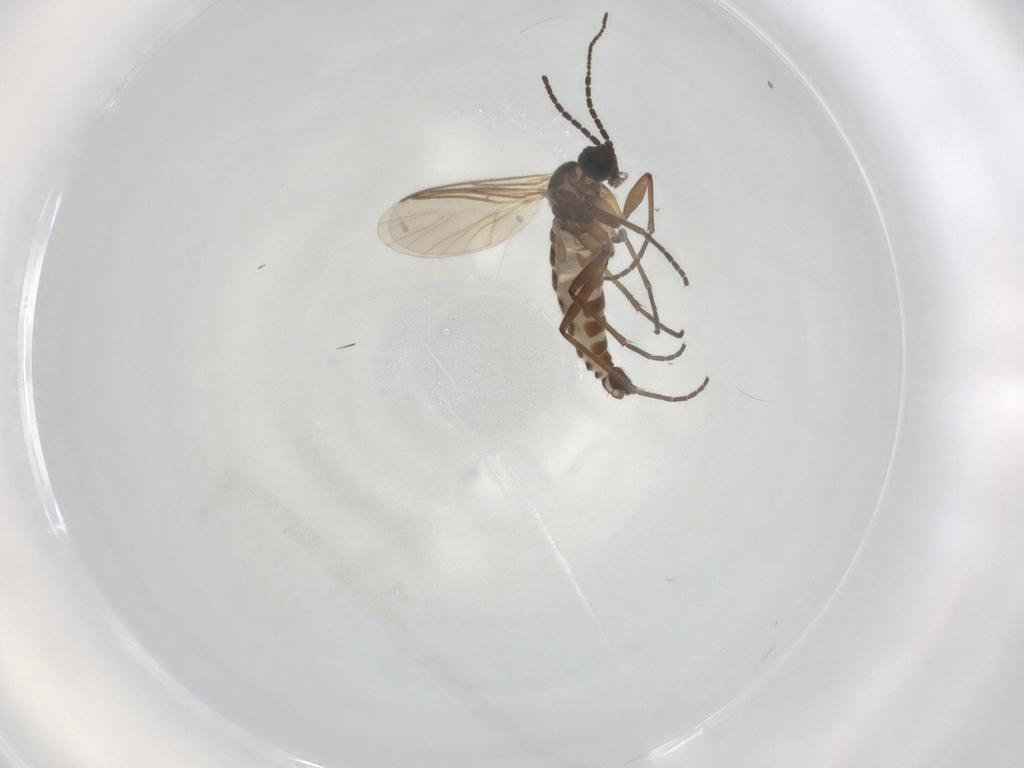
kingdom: Animalia
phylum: Arthropoda
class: Insecta
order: Diptera
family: Sciaridae
